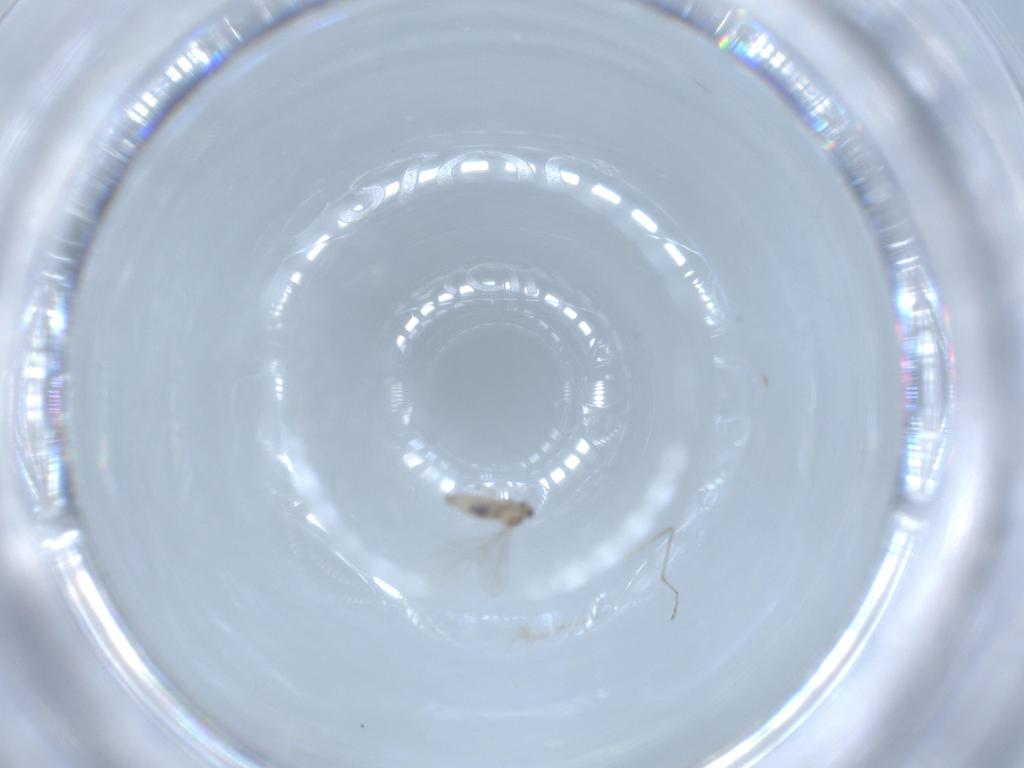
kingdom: Animalia
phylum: Arthropoda
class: Insecta
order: Diptera
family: Cecidomyiidae
